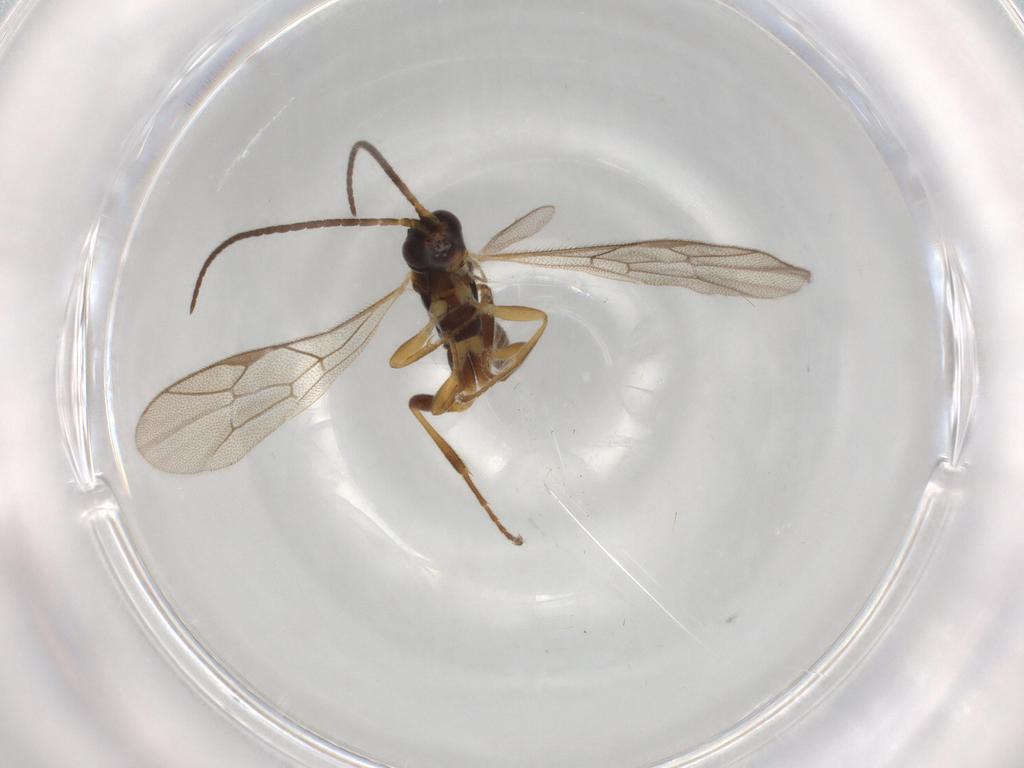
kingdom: Animalia
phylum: Arthropoda
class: Insecta
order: Hymenoptera
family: Ichneumonidae
